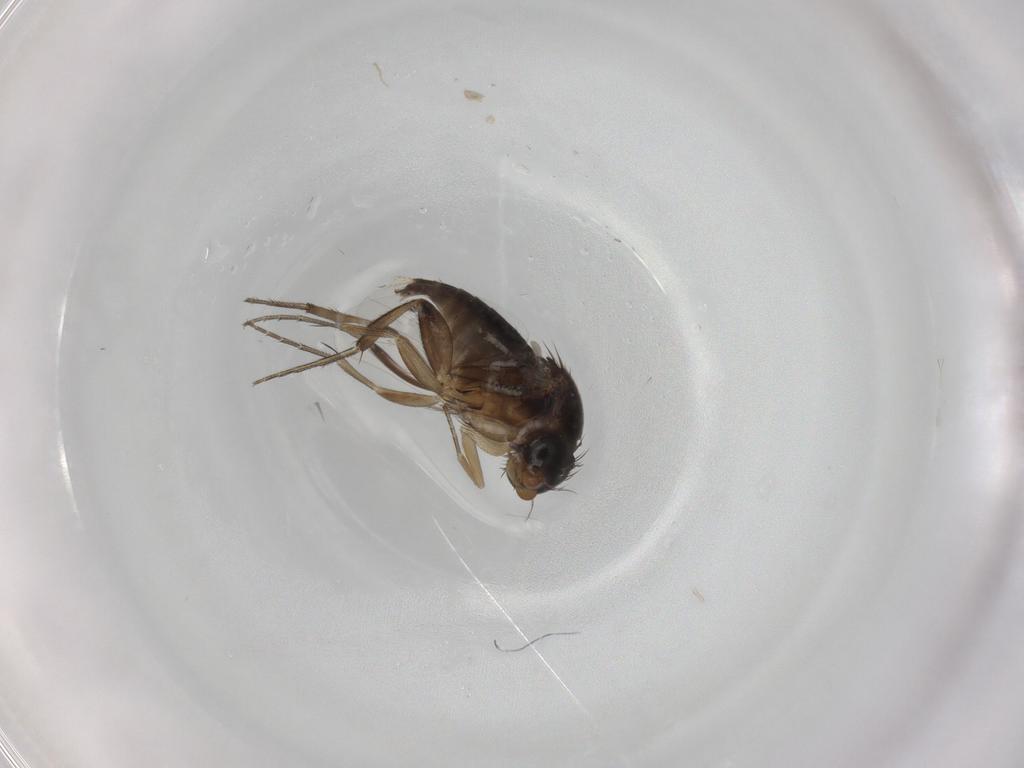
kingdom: Animalia
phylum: Arthropoda
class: Insecta
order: Diptera
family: Phoridae
